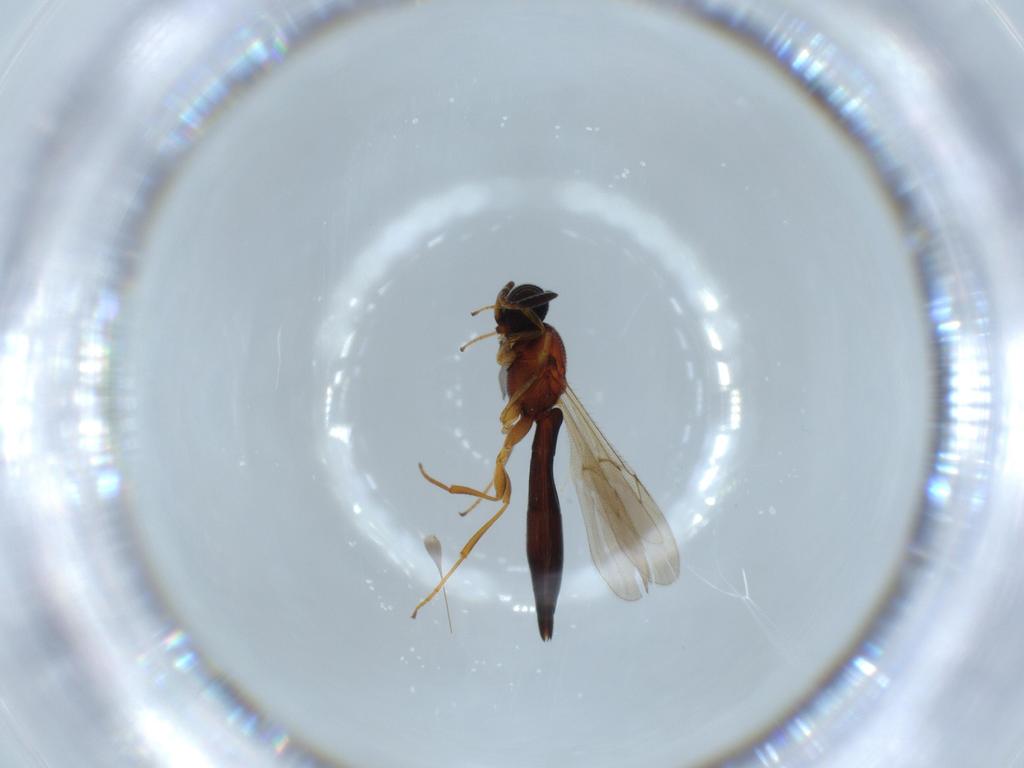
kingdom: Animalia
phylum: Arthropoda
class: Insecta
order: Hymenoptera
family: Scelionidae
